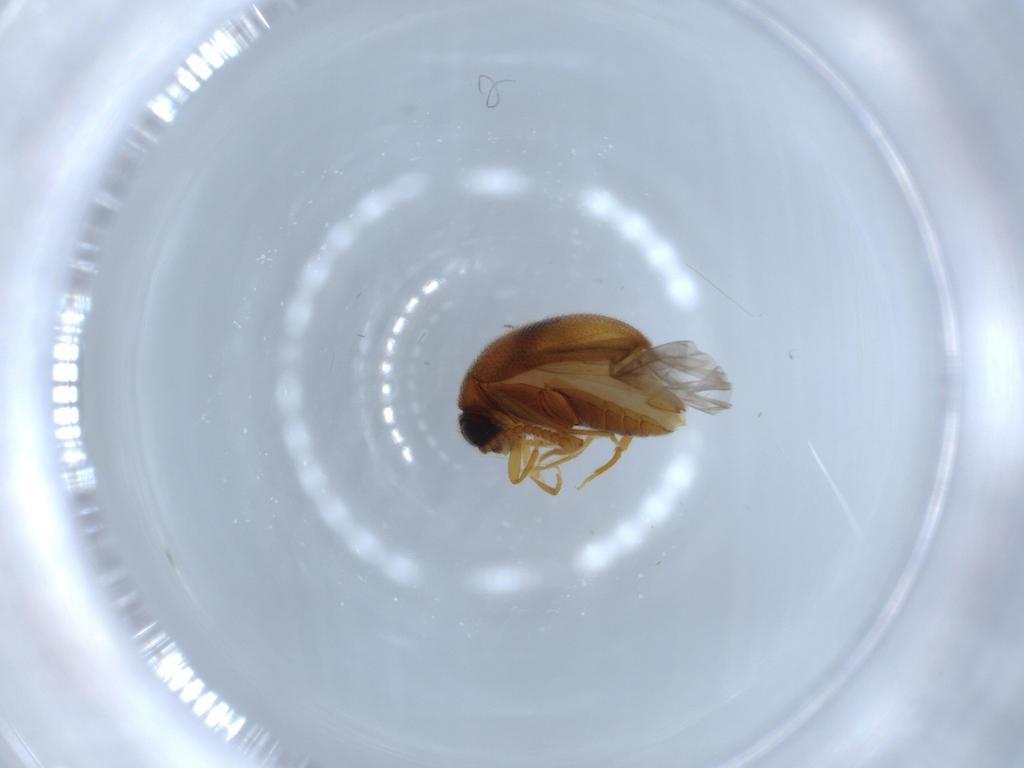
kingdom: Animalia
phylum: Arthropoda
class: Insecta
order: Coleoptera
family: Aderidae
